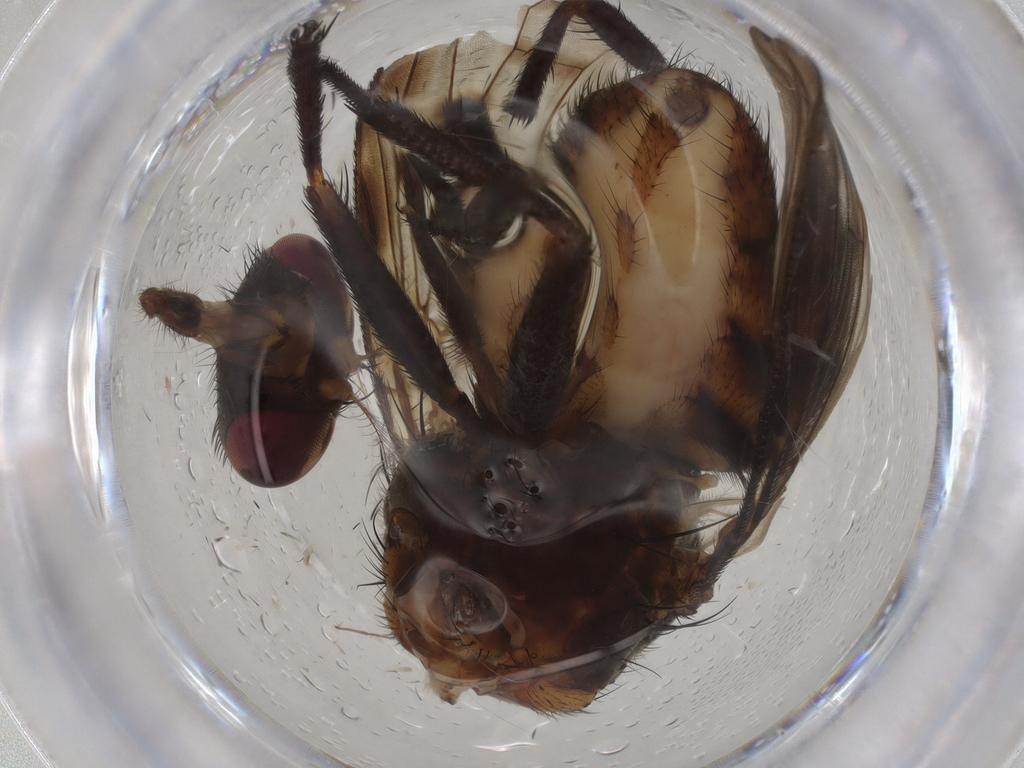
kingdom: Animalia
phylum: Arthropoda
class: Insecta
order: Diptera
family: Muscidae
